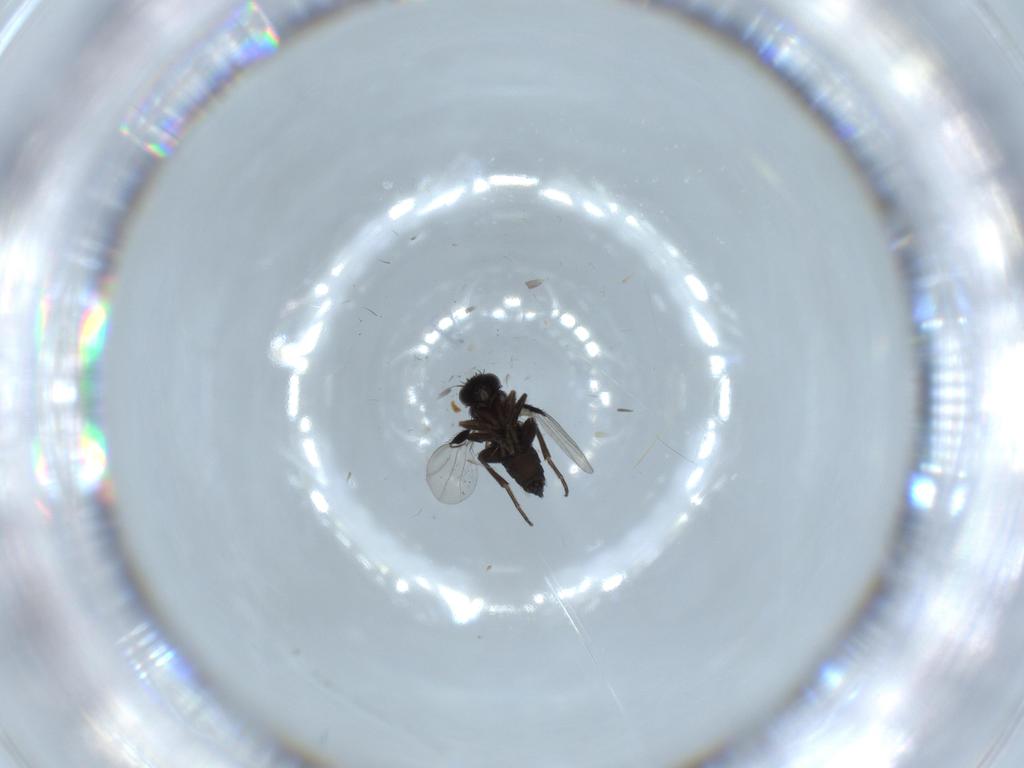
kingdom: Animalia
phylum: Arthropoda
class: Insecta
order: Diptera
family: Phoridae
